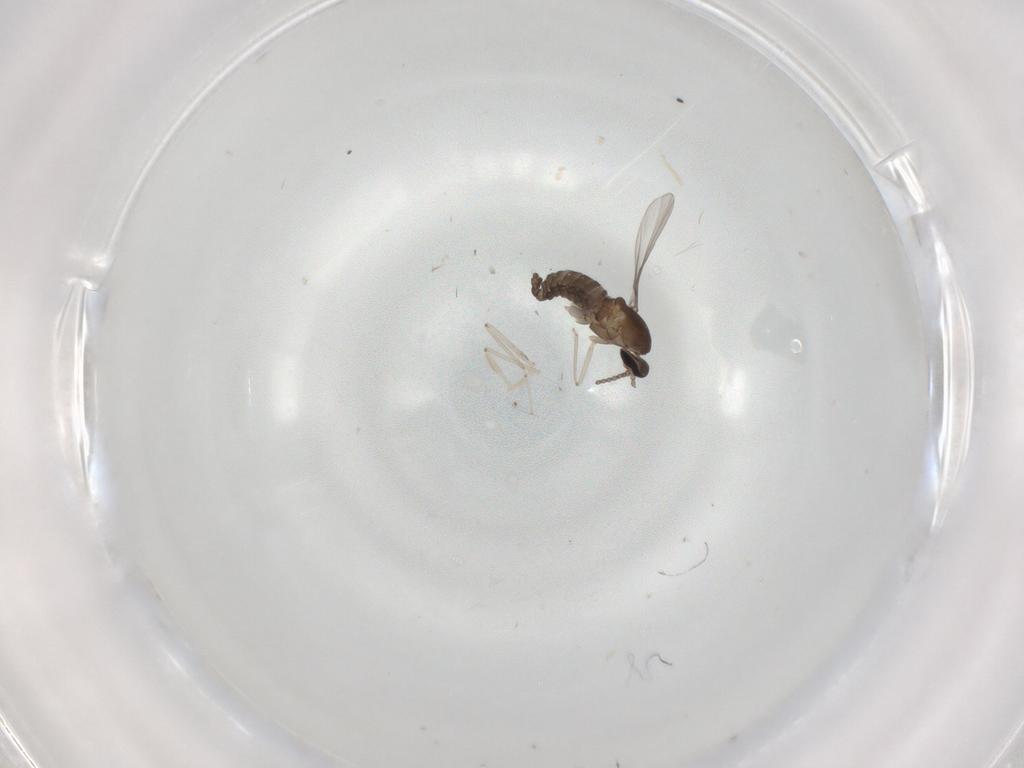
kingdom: Animalia
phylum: Arthropoda
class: Insecta
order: Diptera
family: Cecidomyiidae
